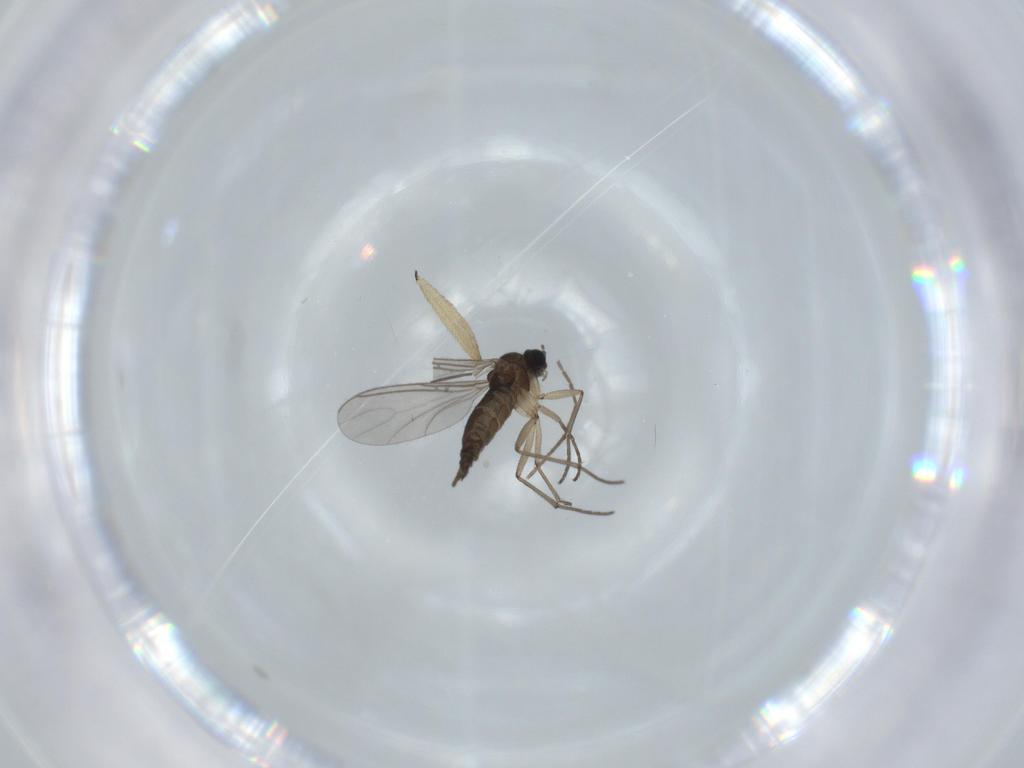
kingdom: Animalia
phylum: Arthropoda
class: Insecta
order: Diptera
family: Sciaridae
